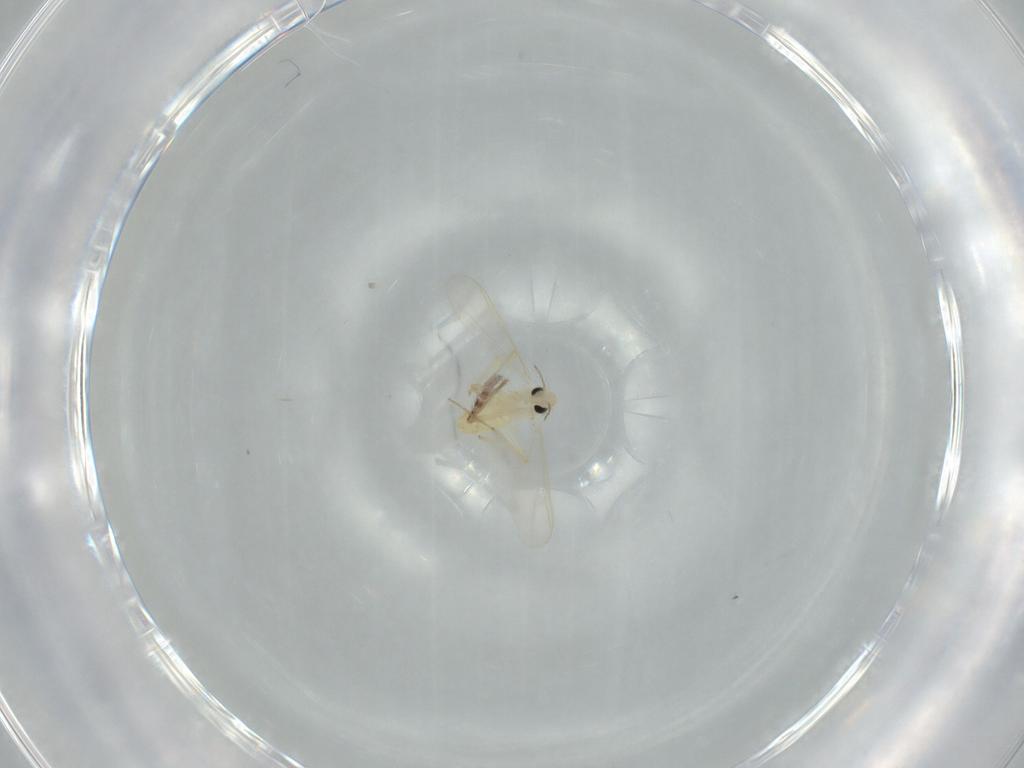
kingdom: Animalia
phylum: Arthropoda
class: Insecta
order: Diptera
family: Chironomidae
